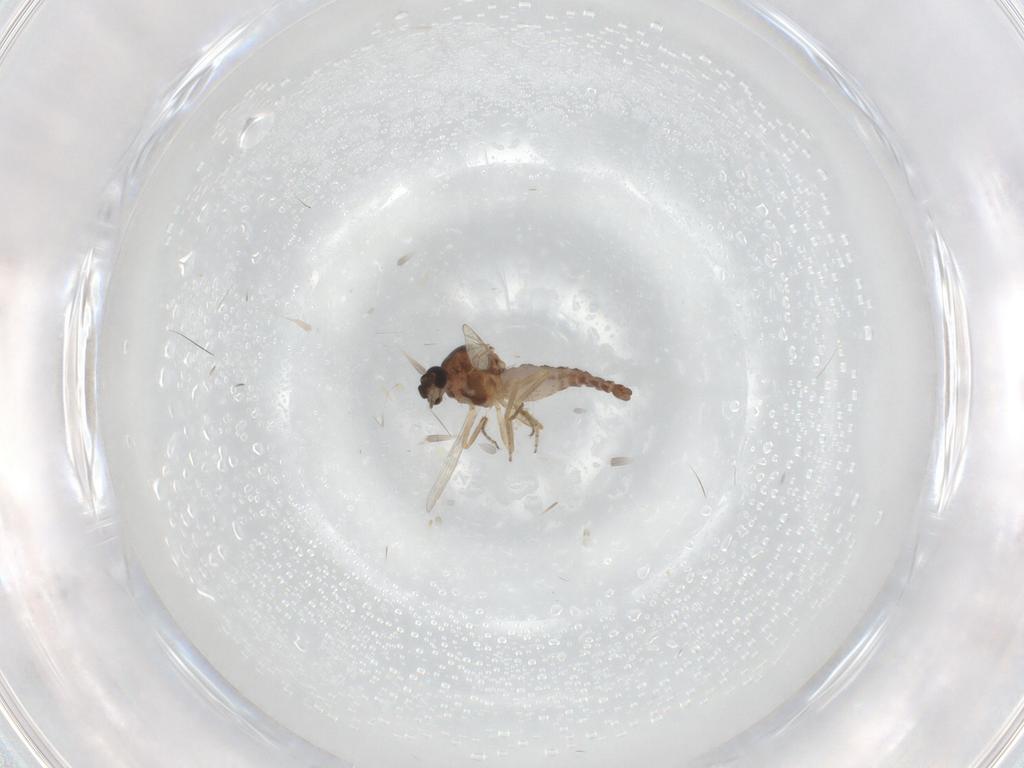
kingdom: Animalia
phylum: Arthropoda
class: Insecta
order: Diptera
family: Ceratopogonidae
